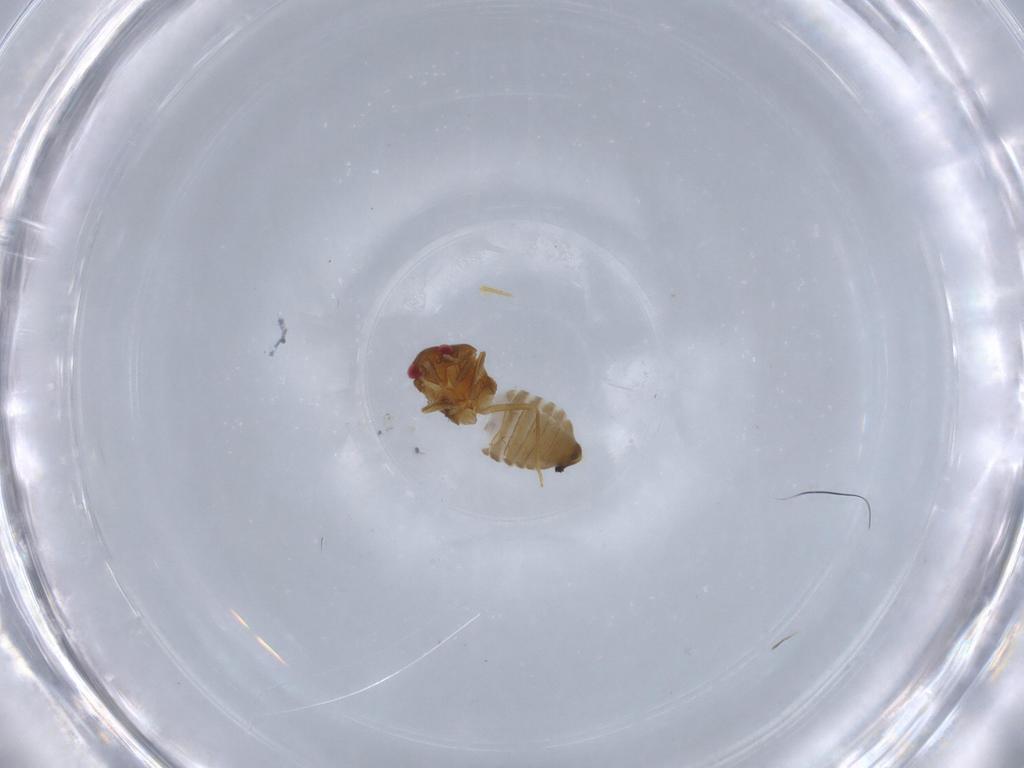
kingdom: Animalia
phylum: Arthropoda
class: Insecta
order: Hemiptera
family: Schizopteridae
